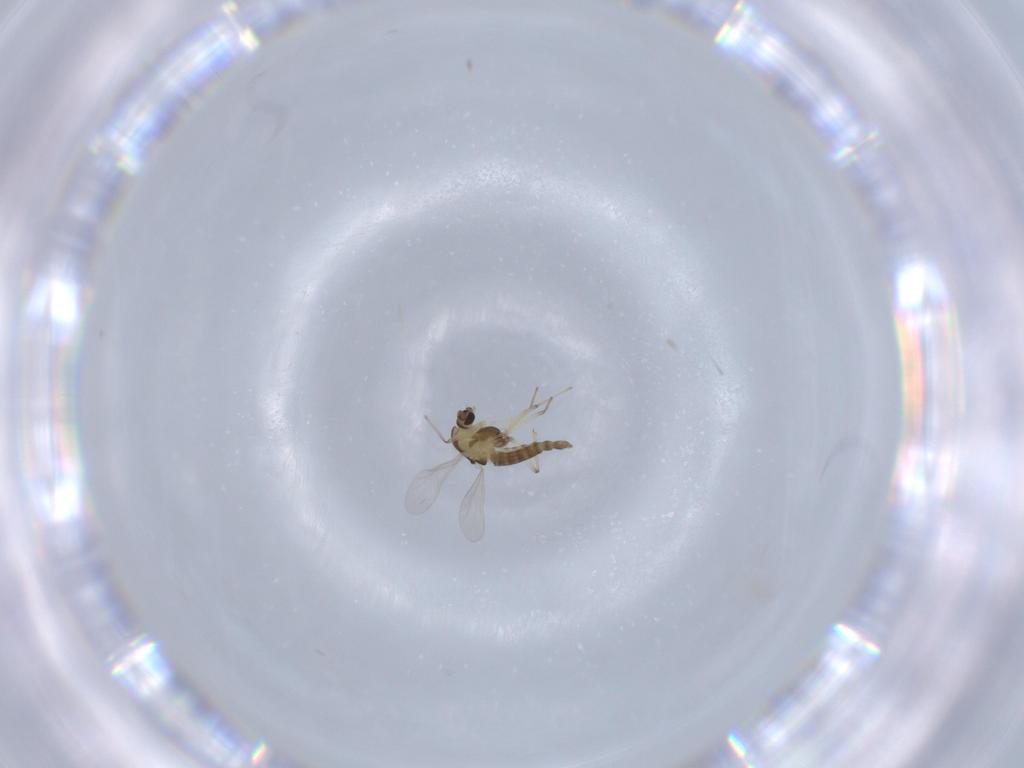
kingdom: Animalia
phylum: Arthropoda
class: Insecta
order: Diptera
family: Chironomidae
